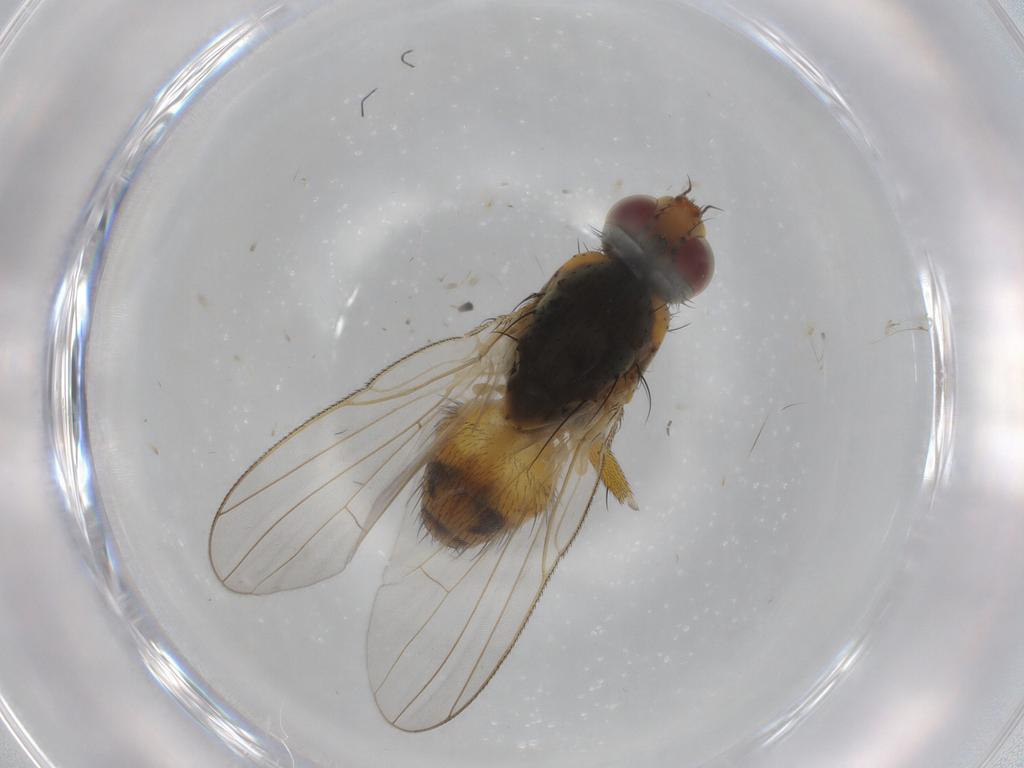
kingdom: Animalia
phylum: Arthropoda
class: Insecta
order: Diptera
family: Muscidae
